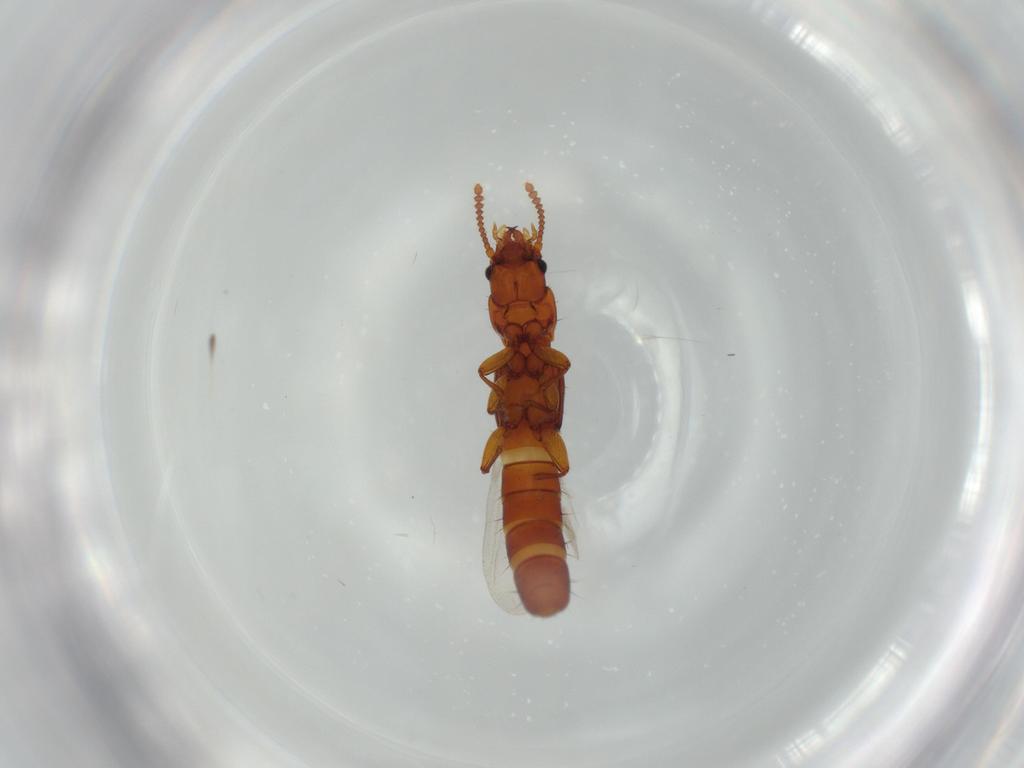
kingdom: Animalia
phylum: Arthropoda
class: Insecta
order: Coleoptera
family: Staphylinidae
